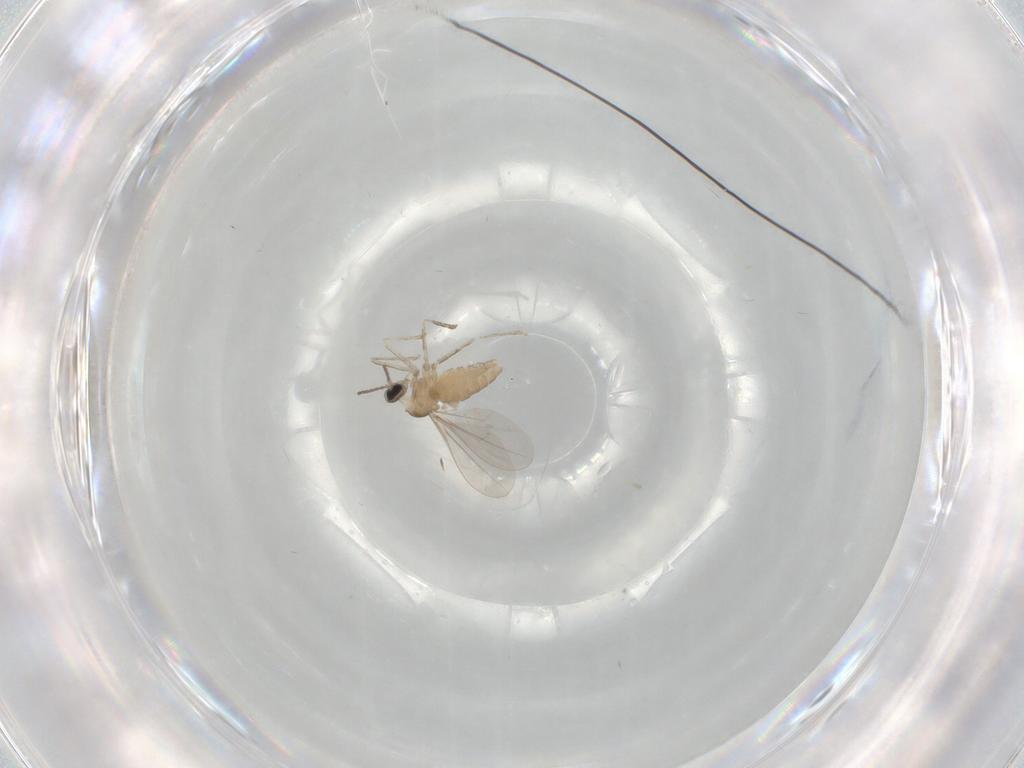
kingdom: Animalia
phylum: Arthropoda
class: Insecta
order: Diptera
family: Cecidomyiidae
